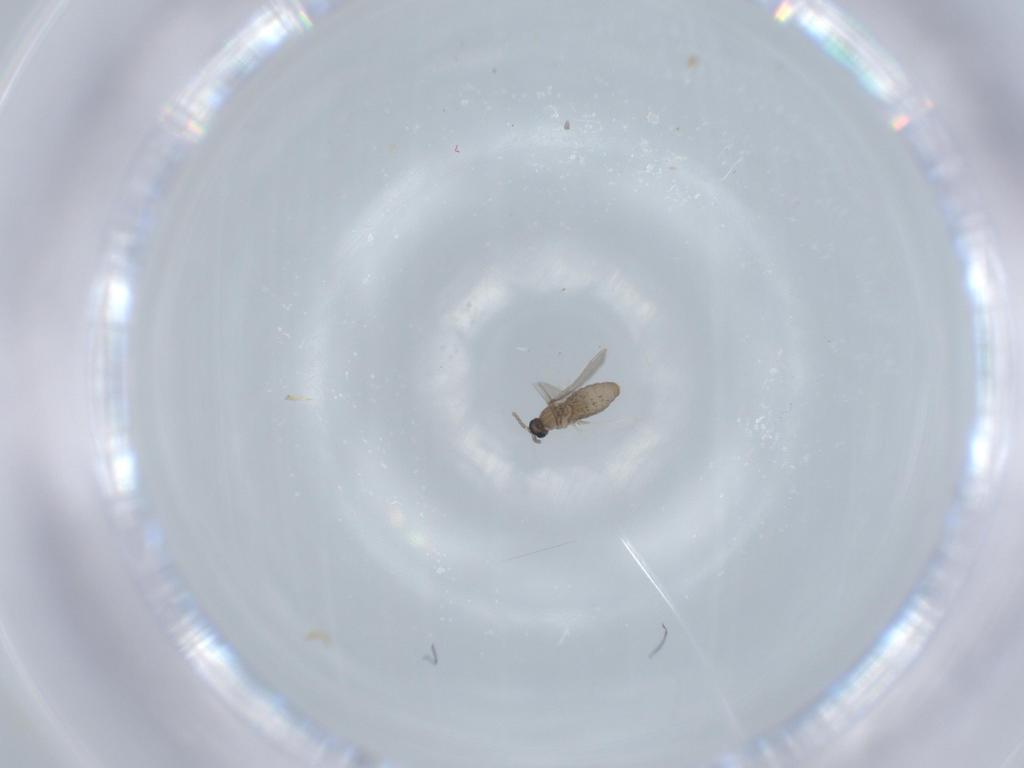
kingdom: Animalia
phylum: Arthropoda
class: Insecta
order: Diptera
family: Cecidomyiidae
